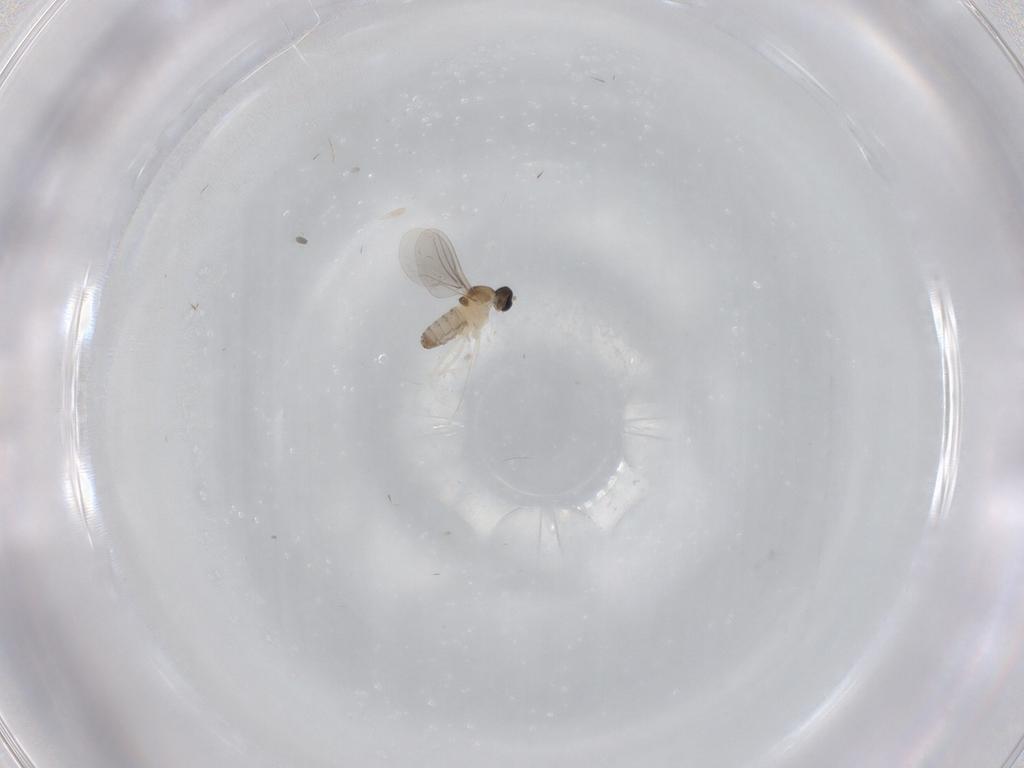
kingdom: Animalia
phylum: Arthropoda
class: Insecta
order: Diptera
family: Cecidomyiidae
